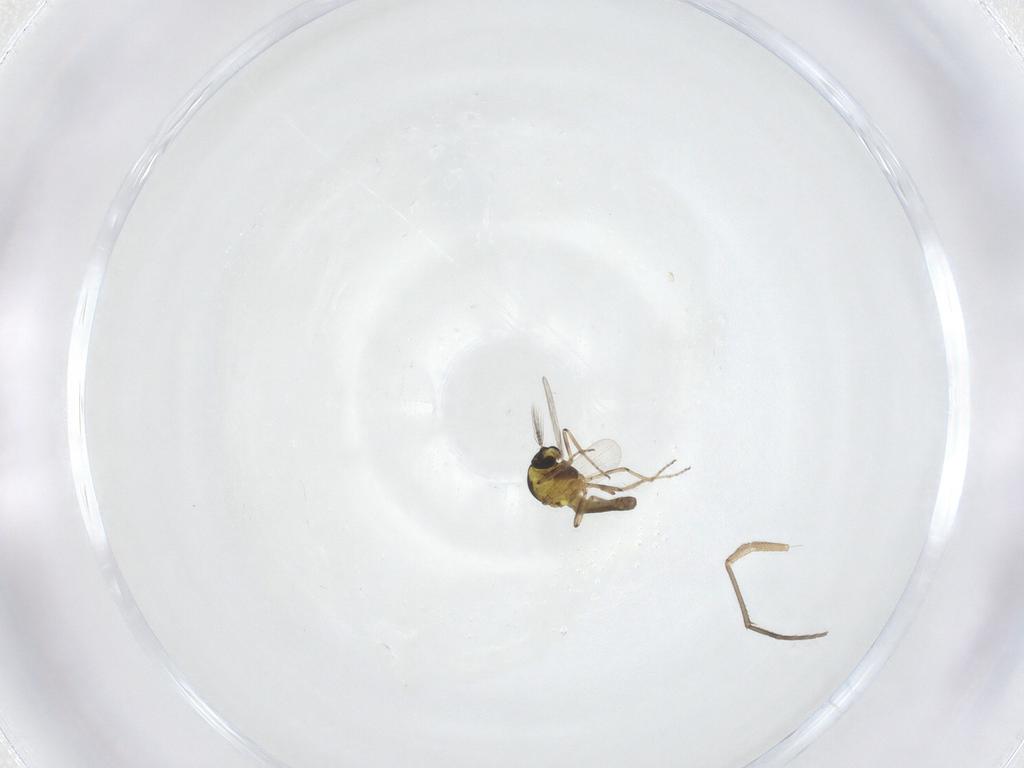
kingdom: Animalia
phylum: Arthropoda
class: Insecta
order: Diptera
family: Sciaridae
